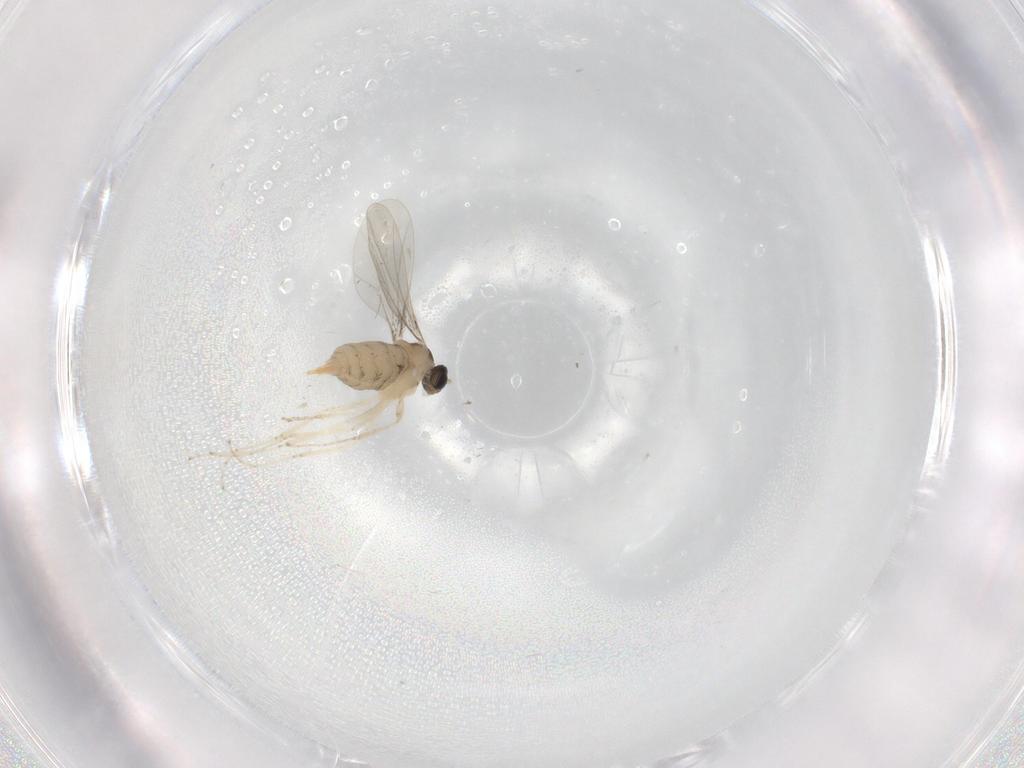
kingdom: Animalia
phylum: Arthropoda
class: Insecta
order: Diptera
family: Cecidomyiidae
